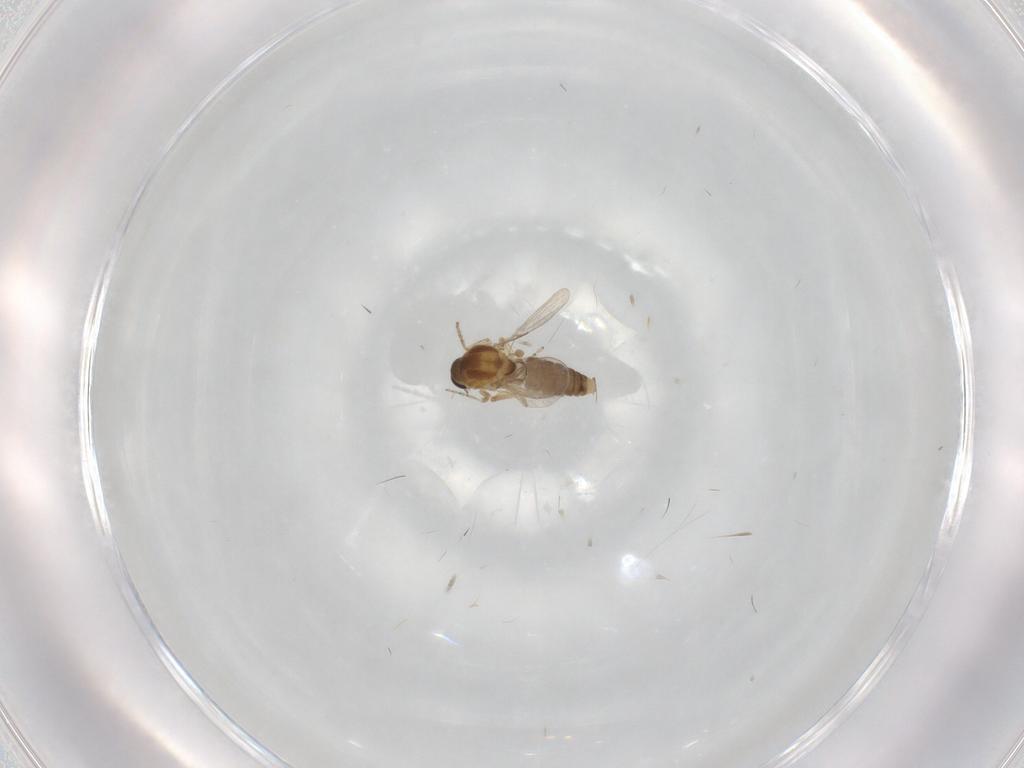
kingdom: Animalia
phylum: Arthropoda
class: Insecta
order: Diptera
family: Ceratopogonidae
